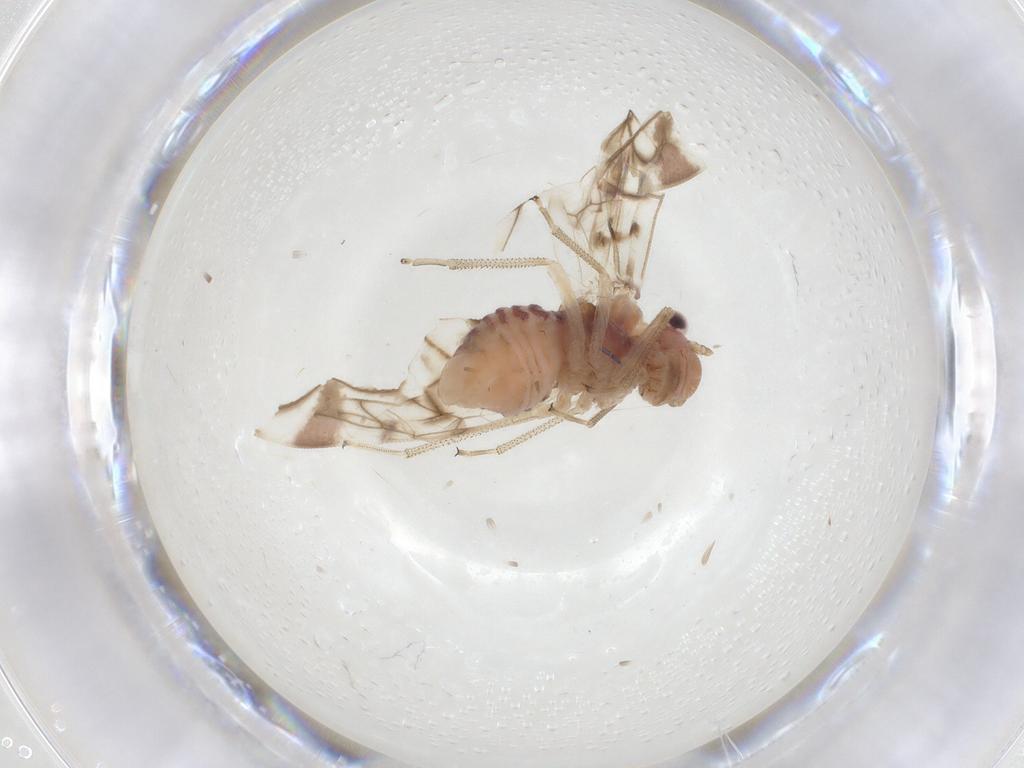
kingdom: Animalia
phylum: Arthropoda
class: Insecta
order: Psocodea
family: Amphipsocidae
